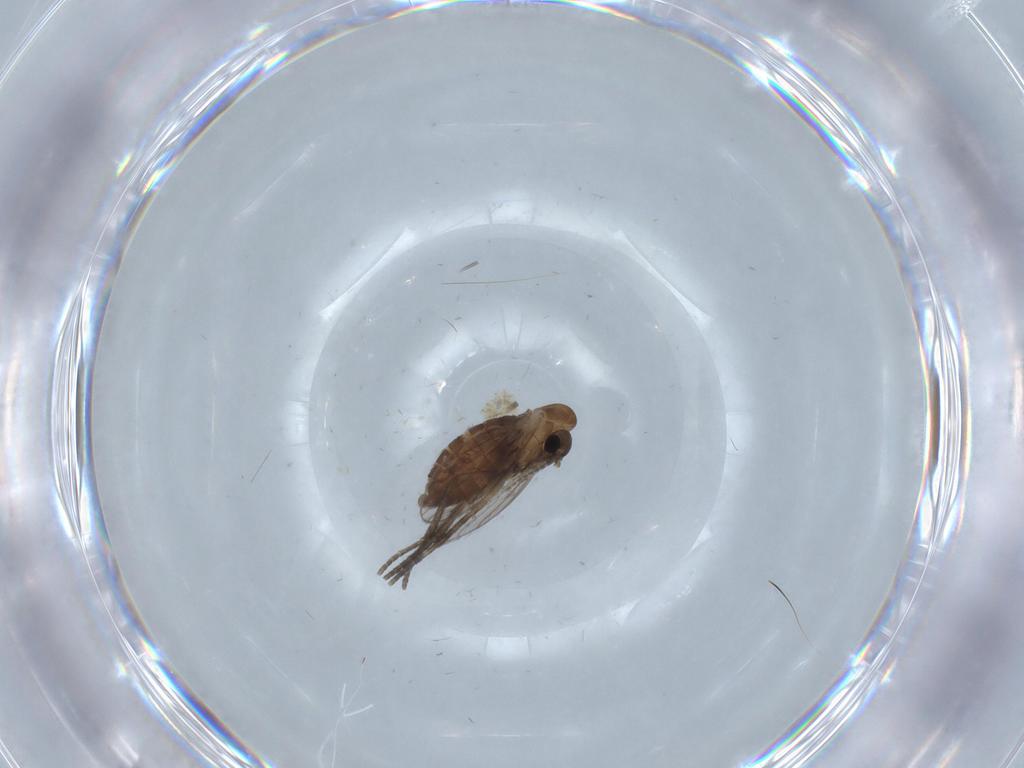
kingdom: Animalia
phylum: Arthropoda
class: Insecta
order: Diptera
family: Psychodidae
